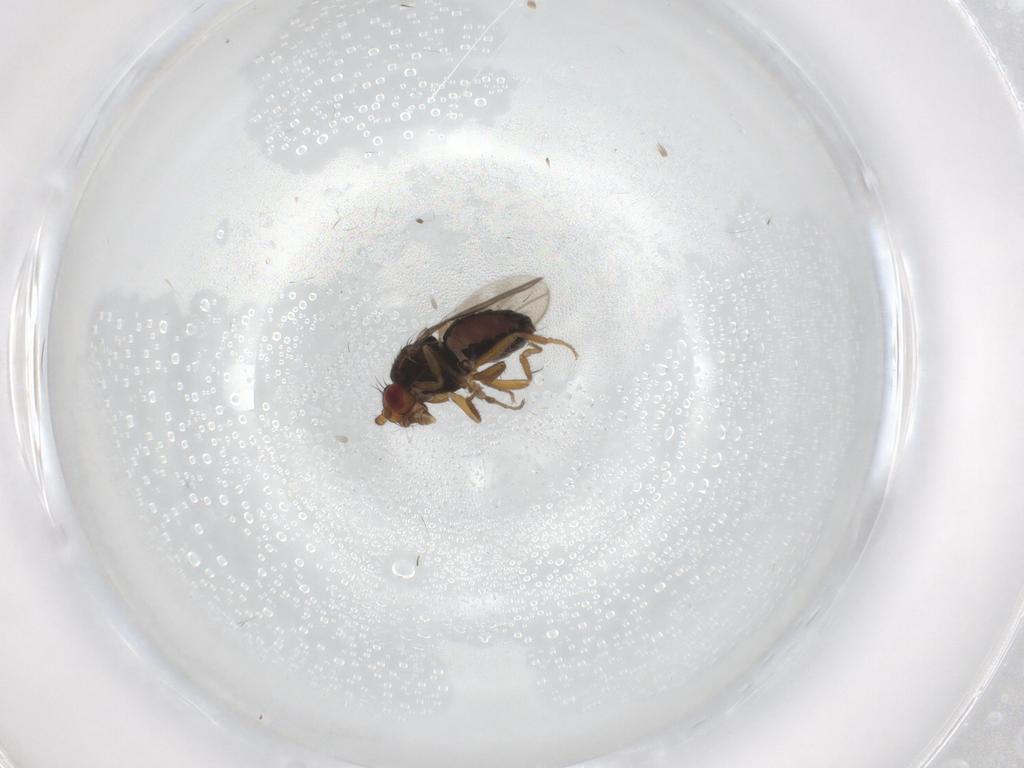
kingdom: Animalia
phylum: Arthropoda
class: Insecta
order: Diptera
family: Sphaeroceridae
